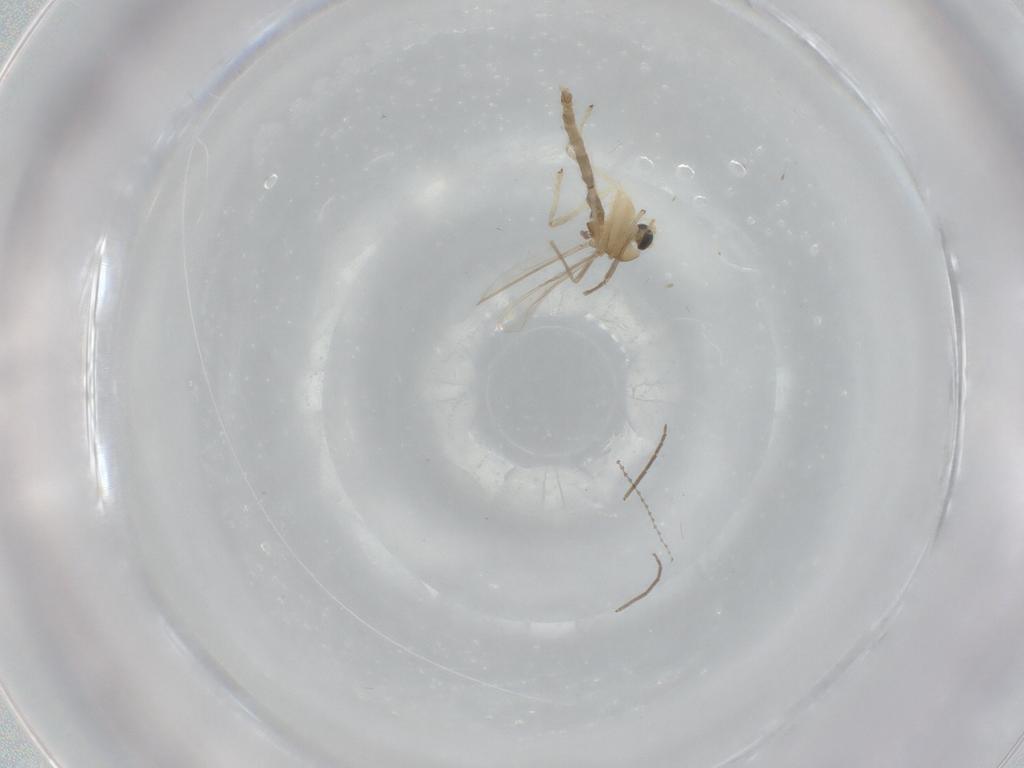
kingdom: Animalia
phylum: Arthropoda
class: Insecta
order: Diptera
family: Chironomidae
